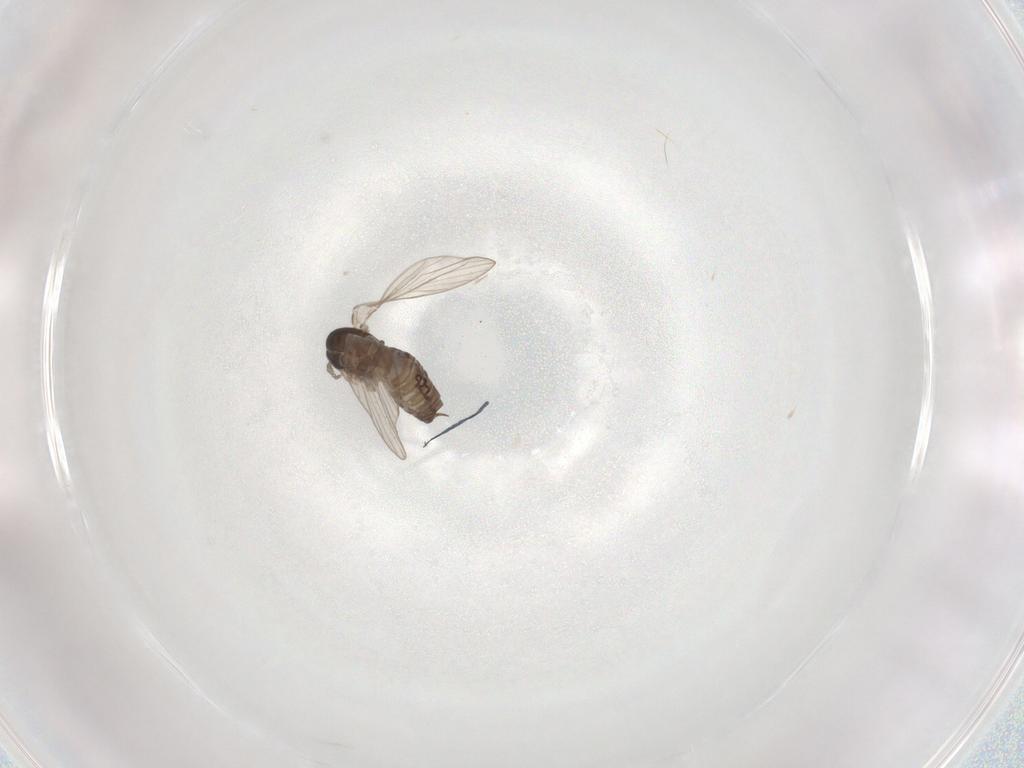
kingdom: Animalia
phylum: Arthropoda
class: Insecta
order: Diptera
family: Psychodidae
